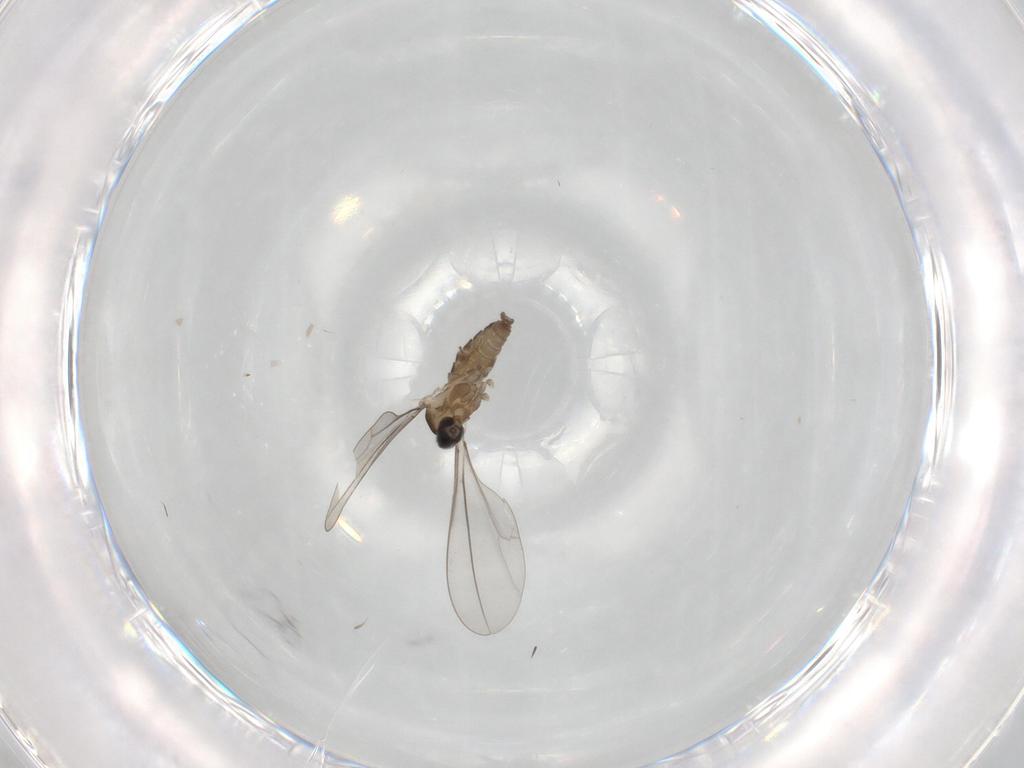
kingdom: Animalia
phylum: Arthropoda
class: Insecta
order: Diptera
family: Cecidomyiidae
